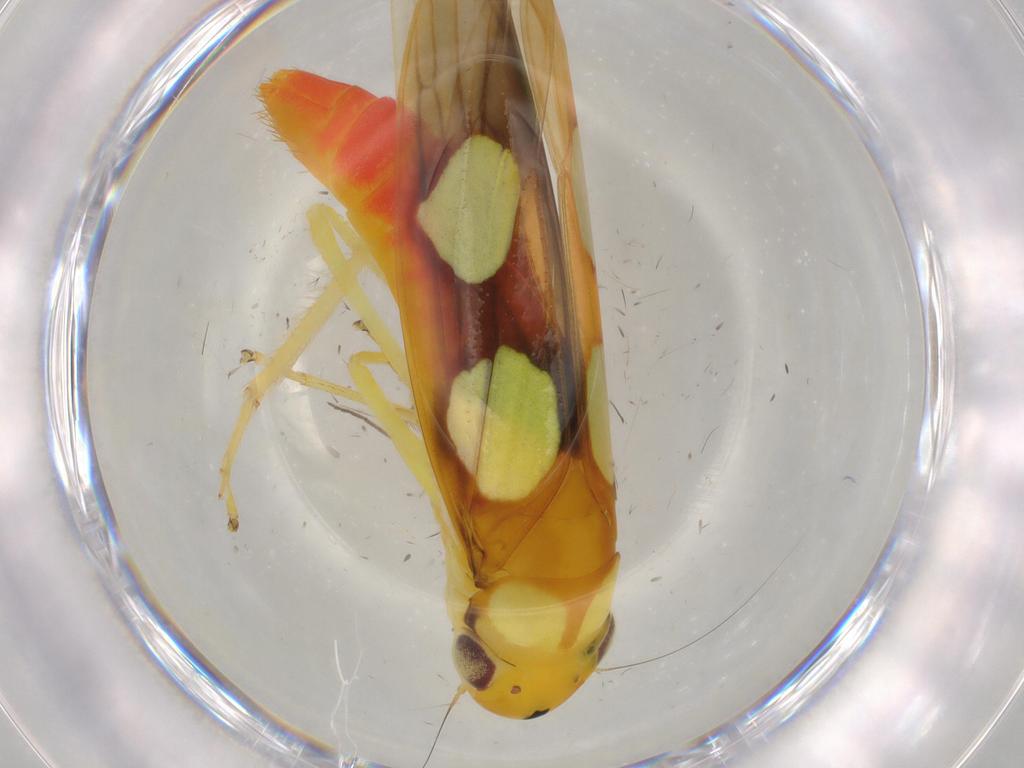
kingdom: Animalia
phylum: Arthropoda
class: Insecta
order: Hemiptera
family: Cicadellidae
